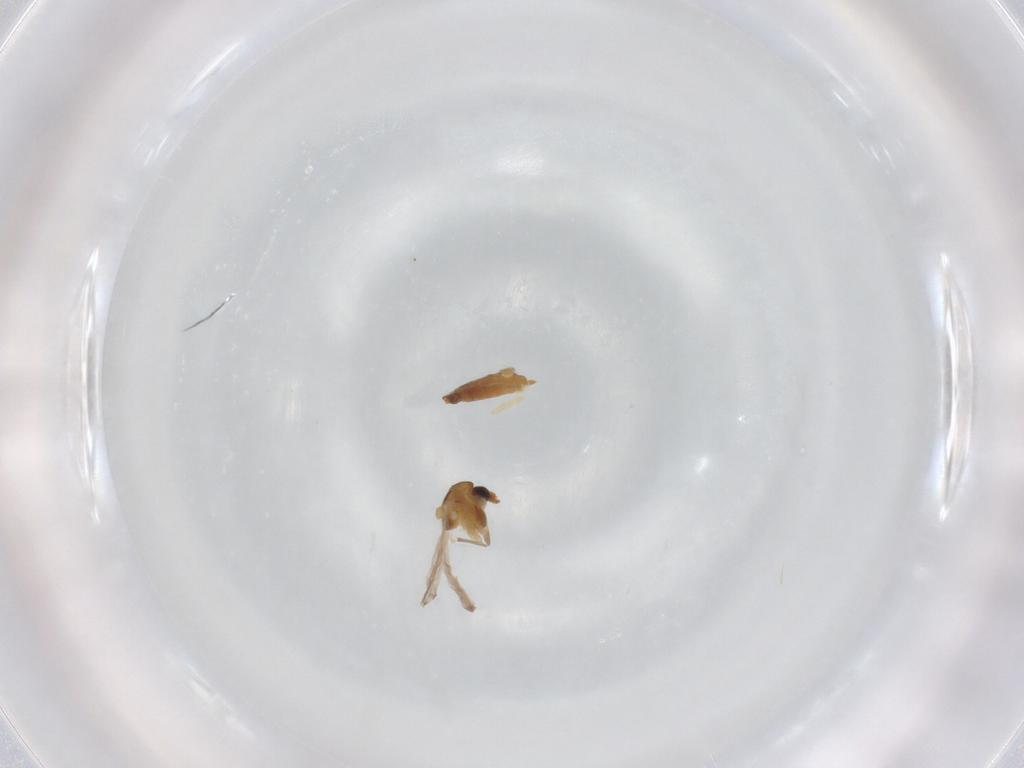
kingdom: Animalia
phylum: Arthropoda
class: Insecta
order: Diptera
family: Chironomidae
